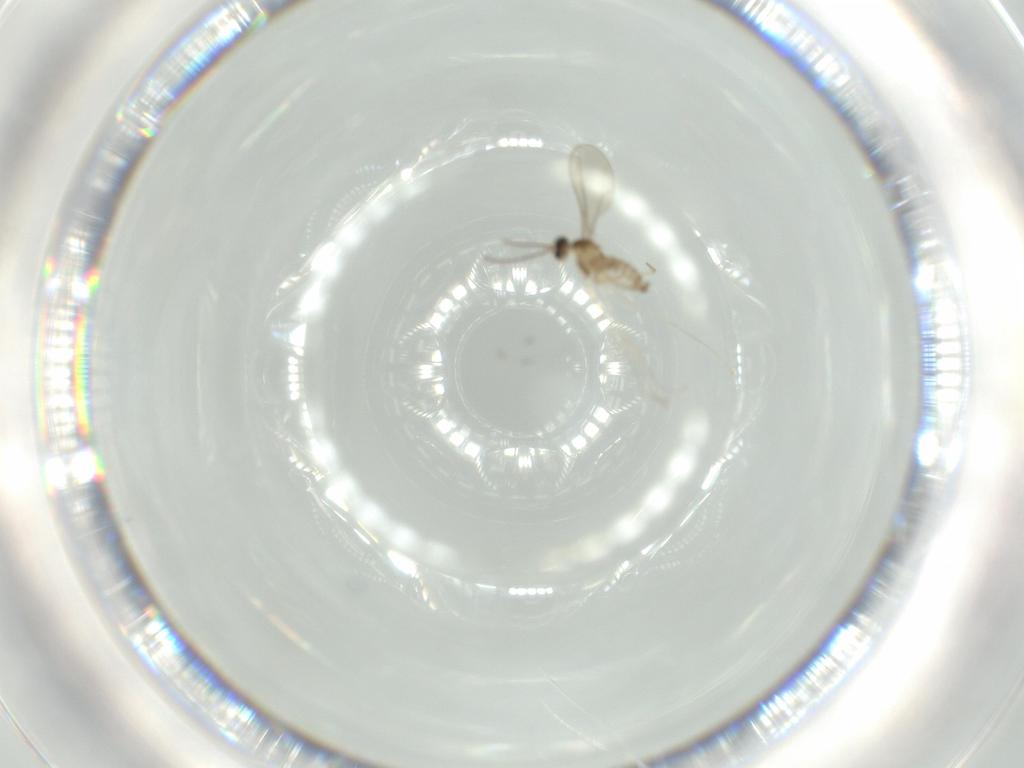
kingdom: Animalia
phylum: Arthropoda
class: Insecta
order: Diptera
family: Cecidomyiidae
